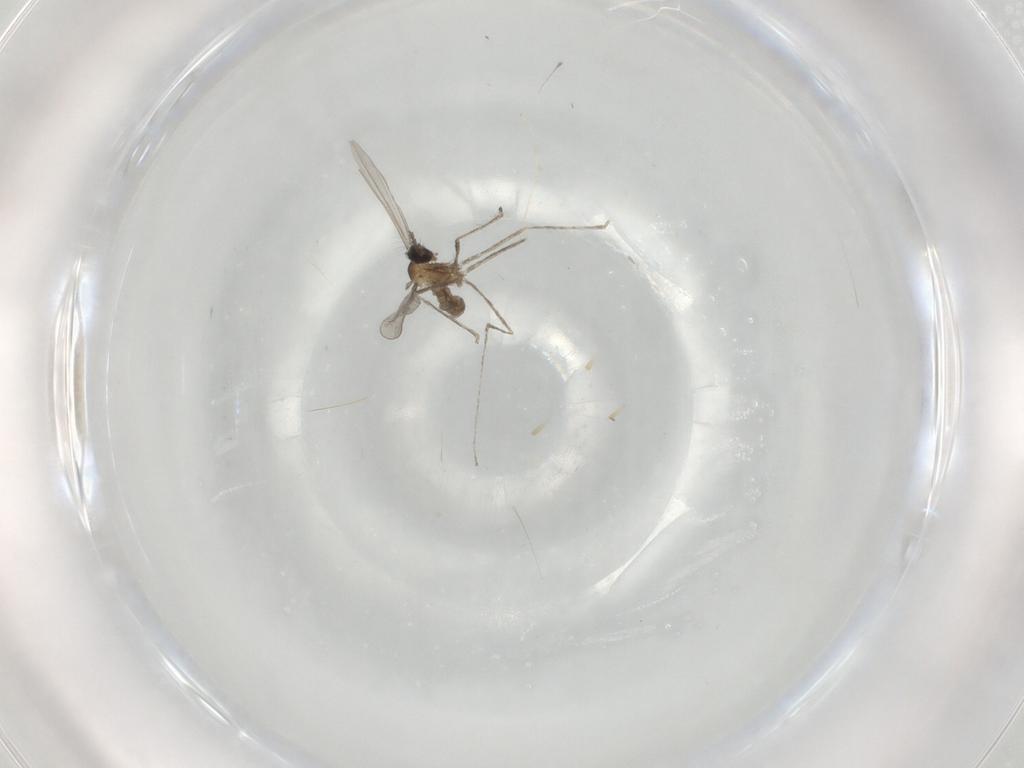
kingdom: Animalia
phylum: Arthropoda
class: Insecta
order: Diptera
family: Cecidomyiidae
